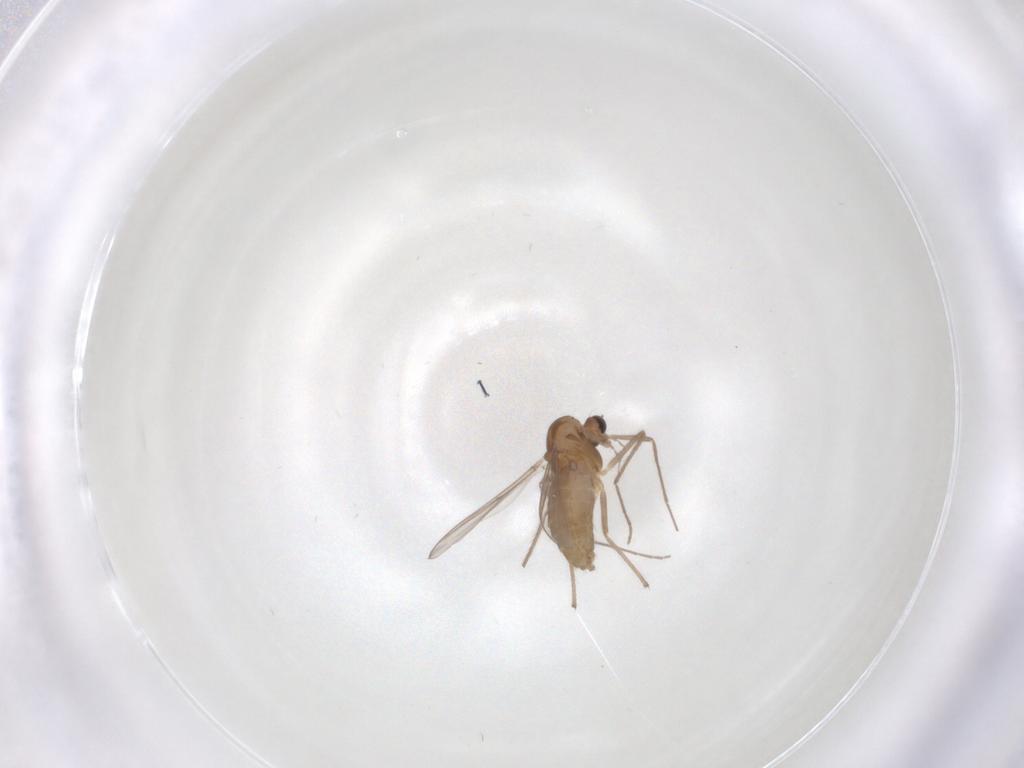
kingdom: Animalia
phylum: Arthropoda
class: Insecta
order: Diptera
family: Chironomidae
